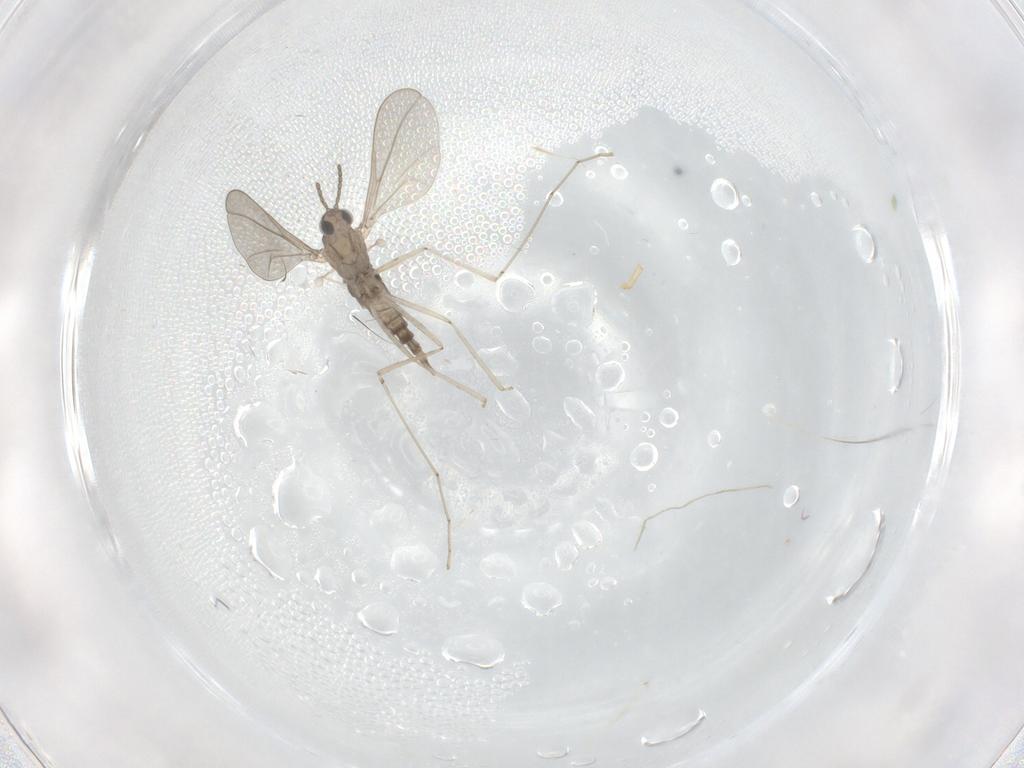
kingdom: Animalia
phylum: Arthropoda
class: Insecta
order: Diptera
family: Cecidomyiidae
